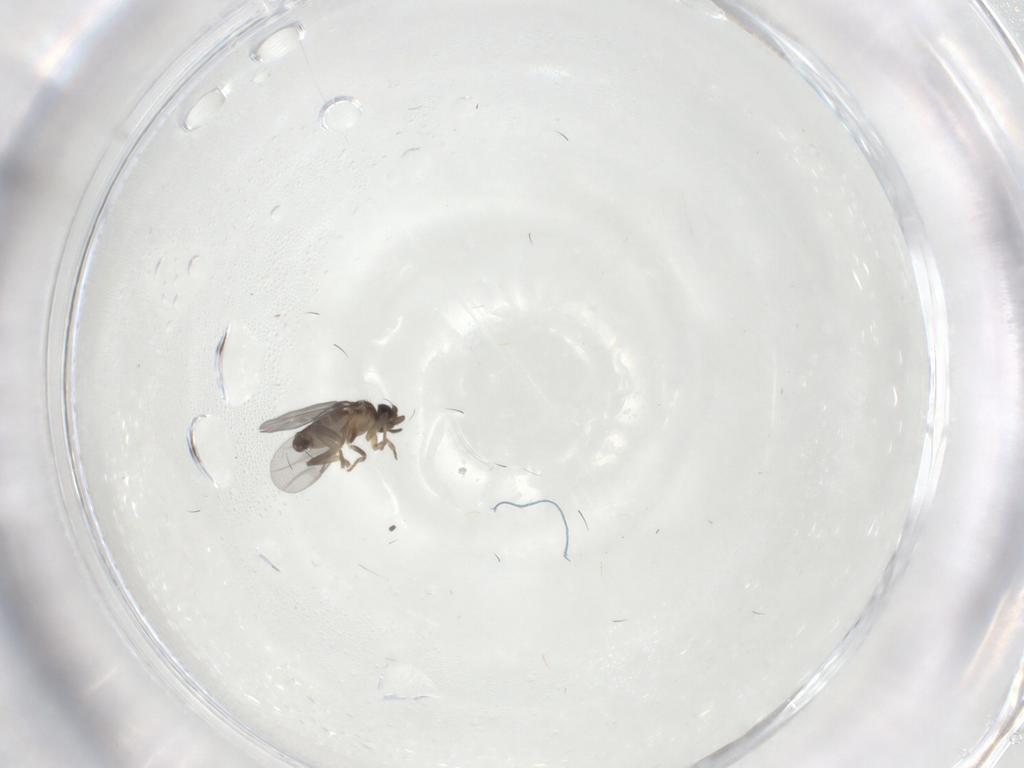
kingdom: Animalia
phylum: Arthropoda
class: Insecta
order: Diptera
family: Sciaridae
